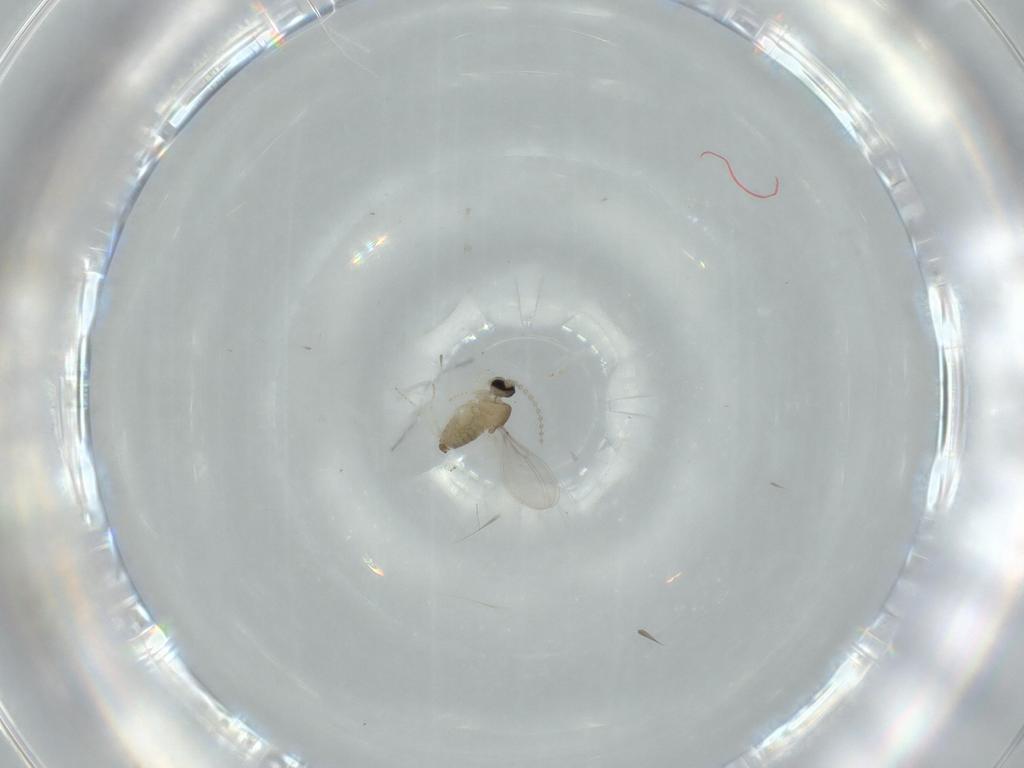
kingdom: Animalia
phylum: Arthropoda
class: Insecta
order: Diptera
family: Cecidomyiidae
